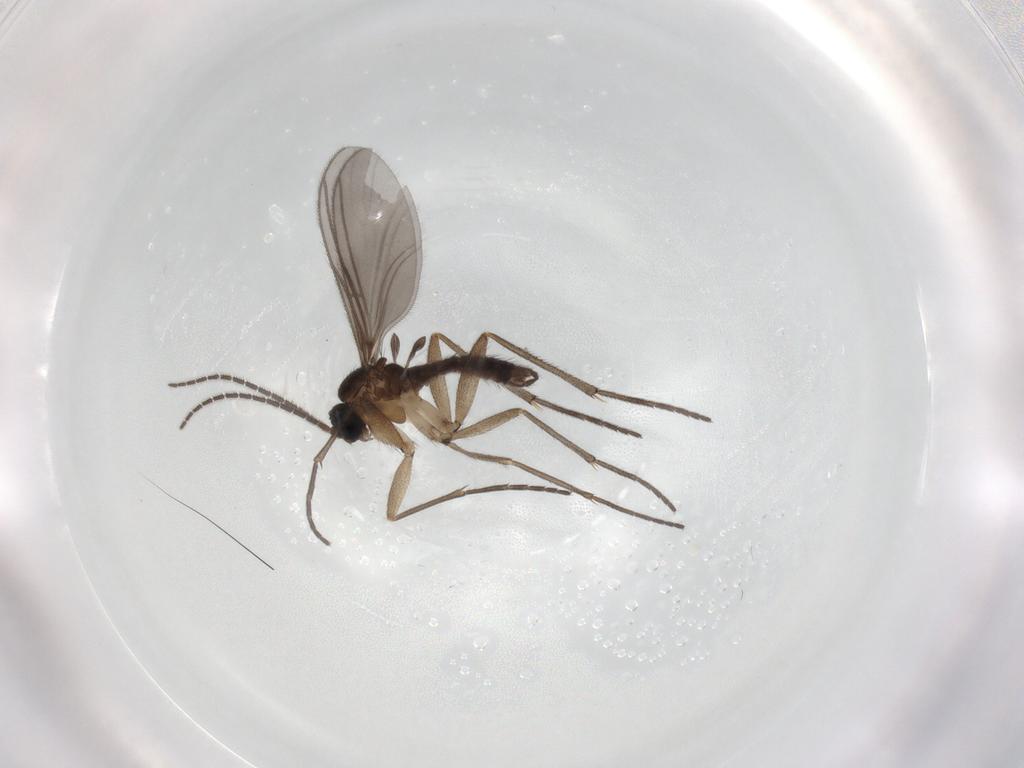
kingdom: Animalia
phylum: Arthropoda
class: Insecta
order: Diptera
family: Sciaridae
